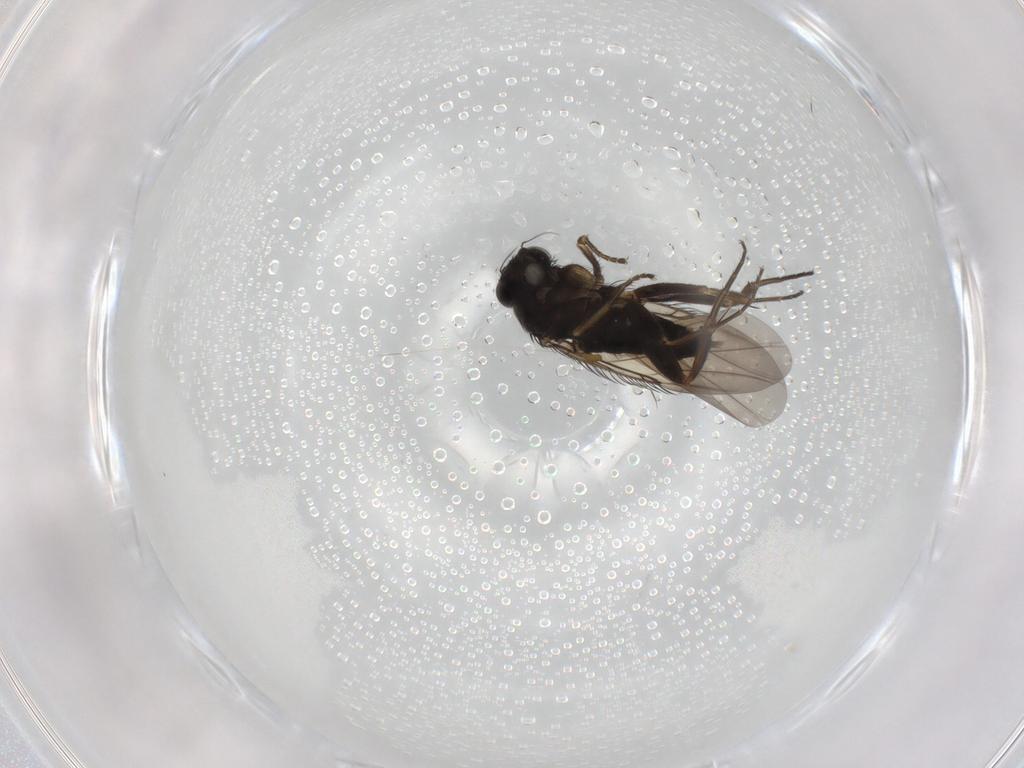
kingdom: Animalia
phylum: Arthropoda
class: Insecta
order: Diptera
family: Phoridae
